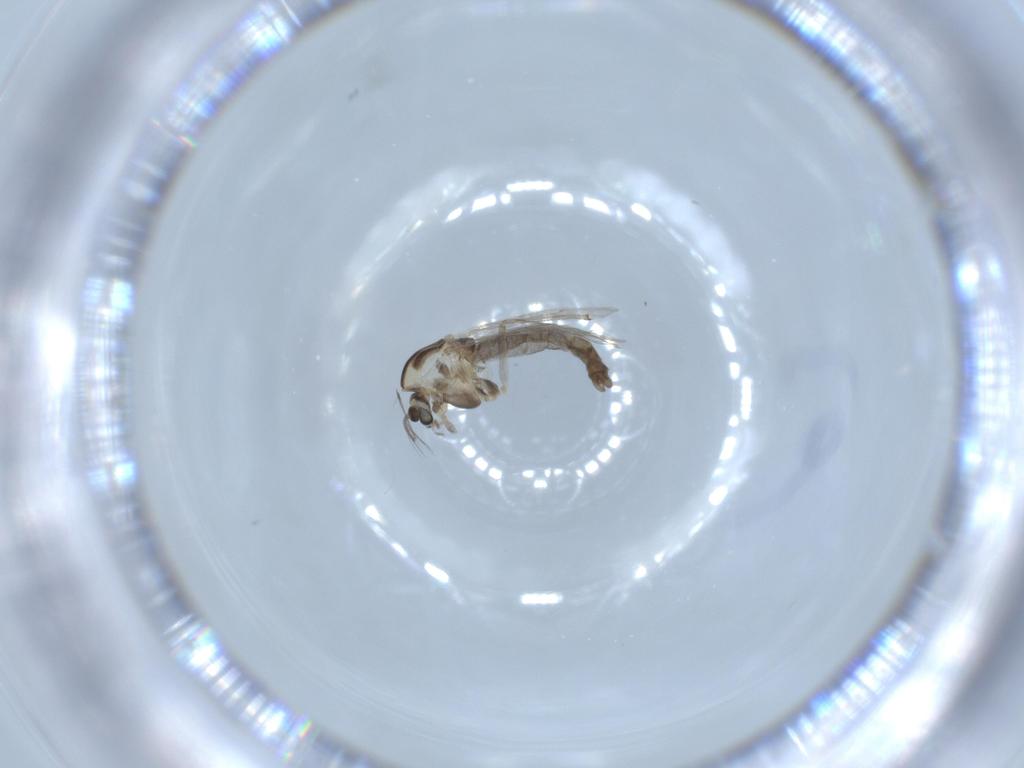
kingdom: Animalia
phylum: Arthropoda
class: Insecta
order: Diptera
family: Chironomidae
